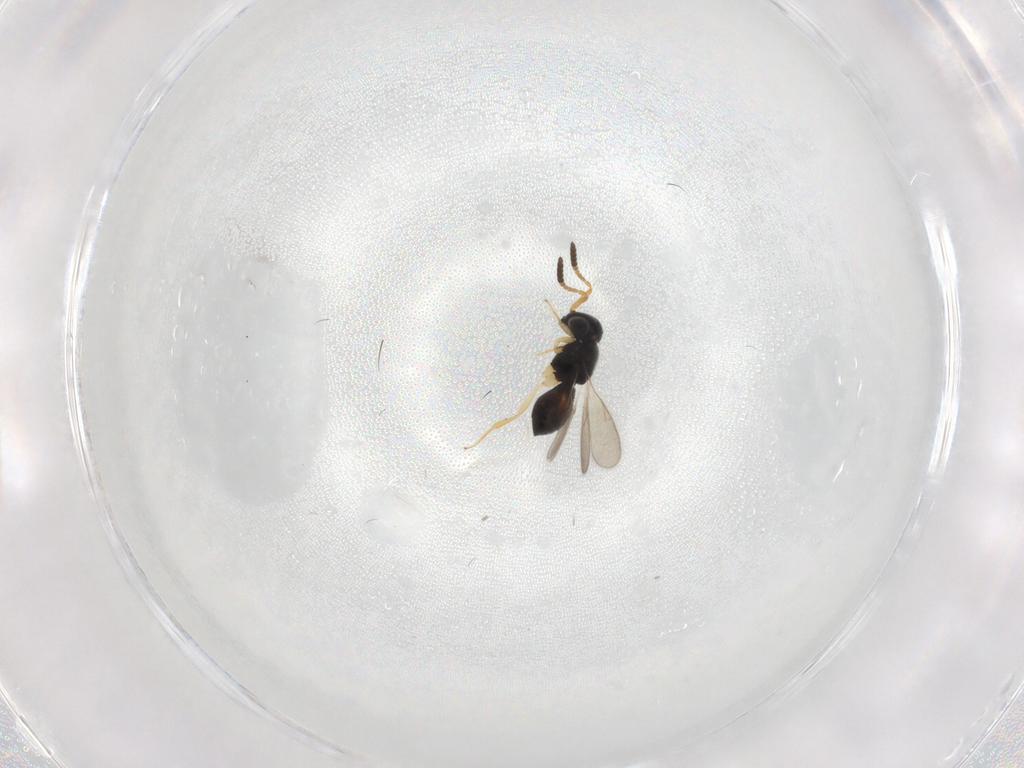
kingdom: Animalia
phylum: Arthropoda
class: Insecta
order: Hymenoptera
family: Scelionidae
